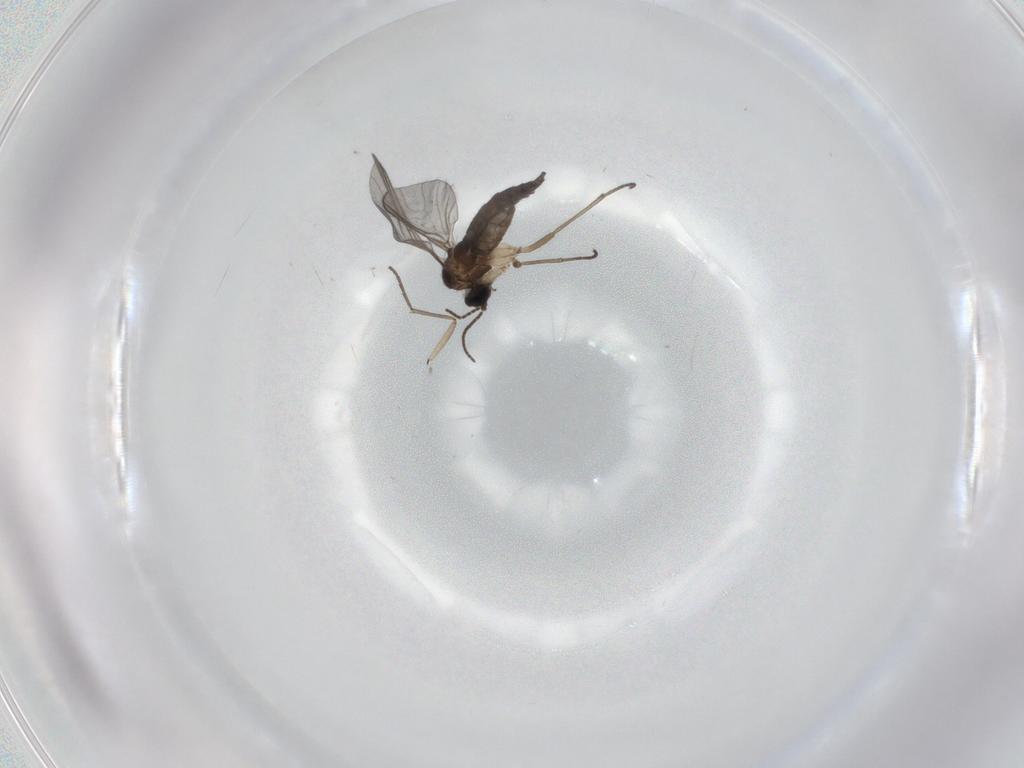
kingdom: Animalia
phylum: Arthropoda
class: Insecta
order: Diptera
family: Sciaridae
